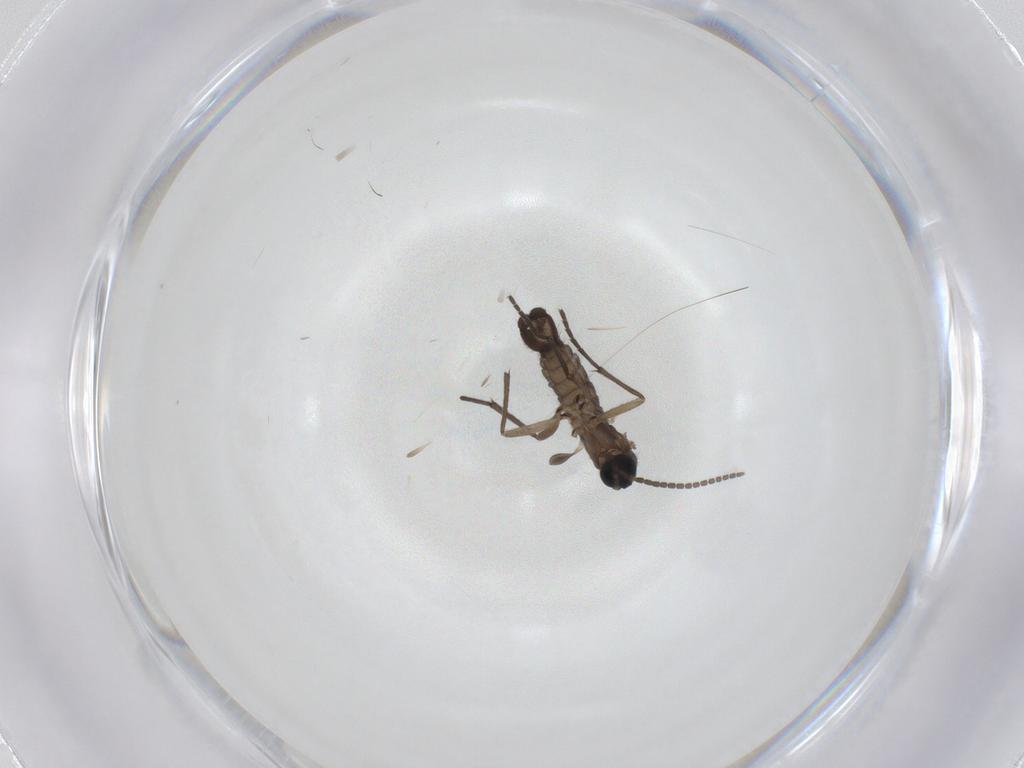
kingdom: Animalia
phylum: Arthropoda
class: Insecta
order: Diptera
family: Sciaridae
